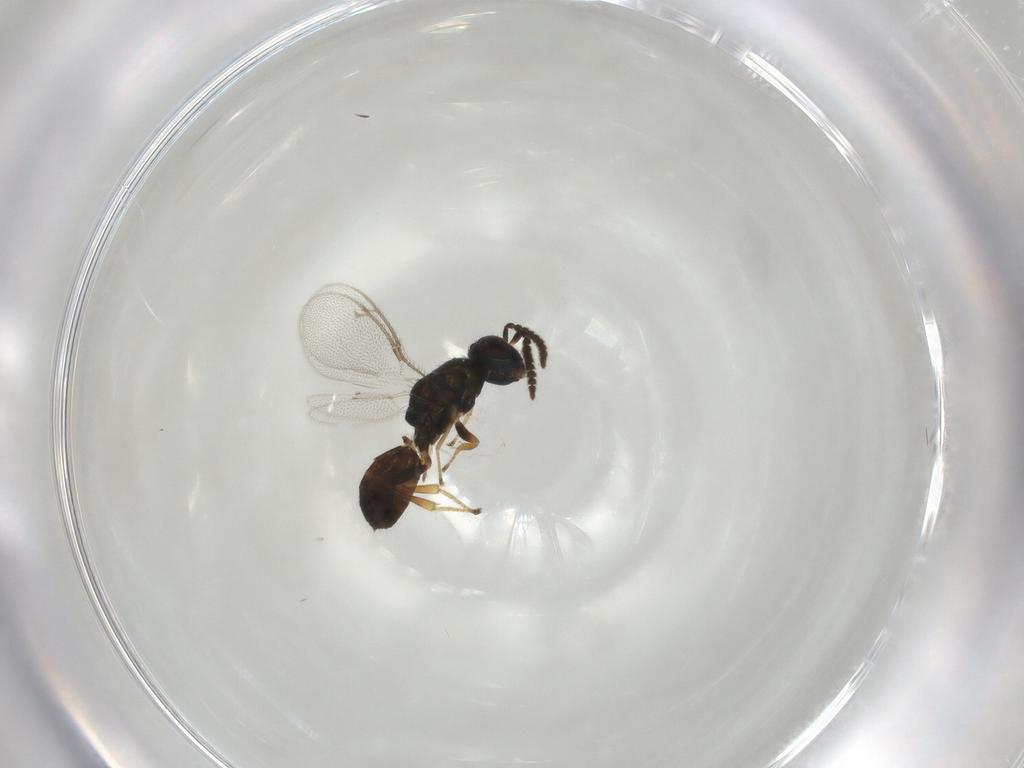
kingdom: Animalia
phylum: Arthropoda
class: Insecta
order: Hymenoptera
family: Pteromalidae
